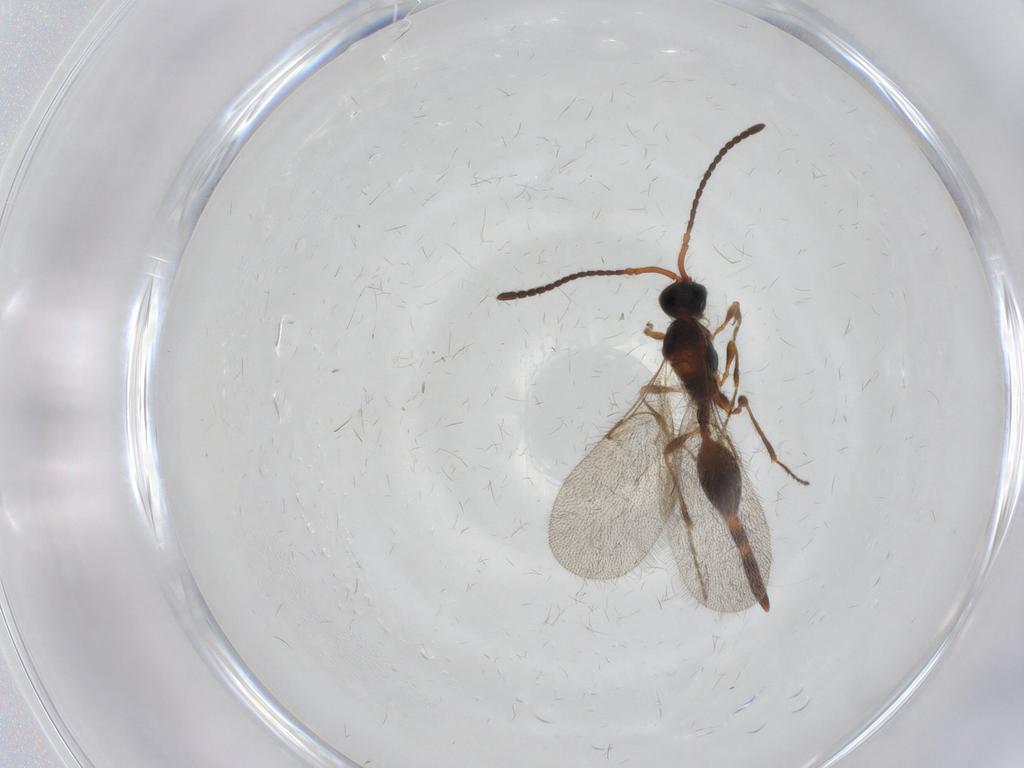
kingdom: Animalia
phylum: Arthropoda
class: Insecta
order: Hymenoptera
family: Diapriidae
